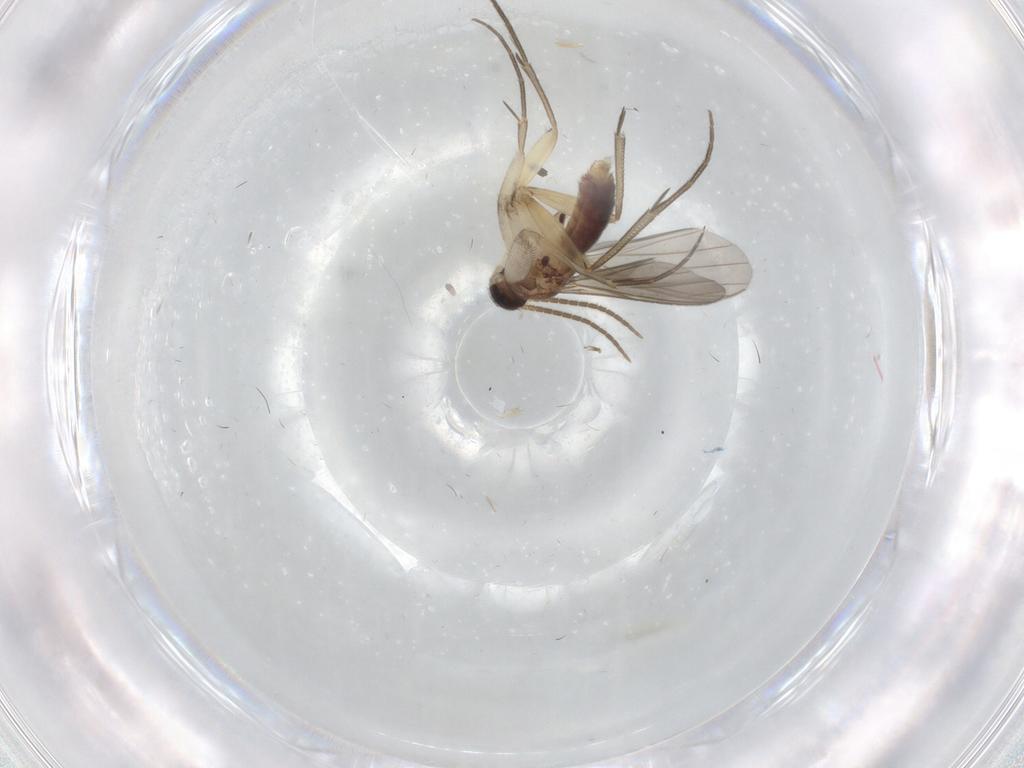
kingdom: Animalia
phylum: Arthropoda
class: Insecta
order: Diptera
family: Mycetophilidae
